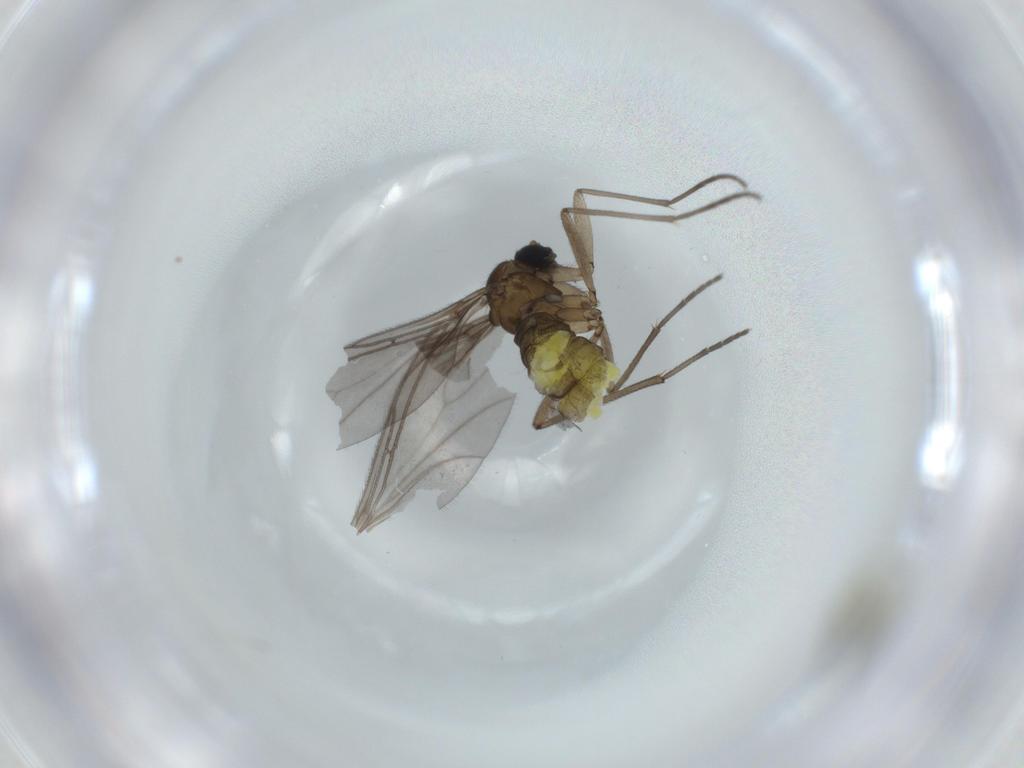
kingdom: Animalia
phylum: Arthropoda
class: Insecta
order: Diptera
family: Sciaridae
